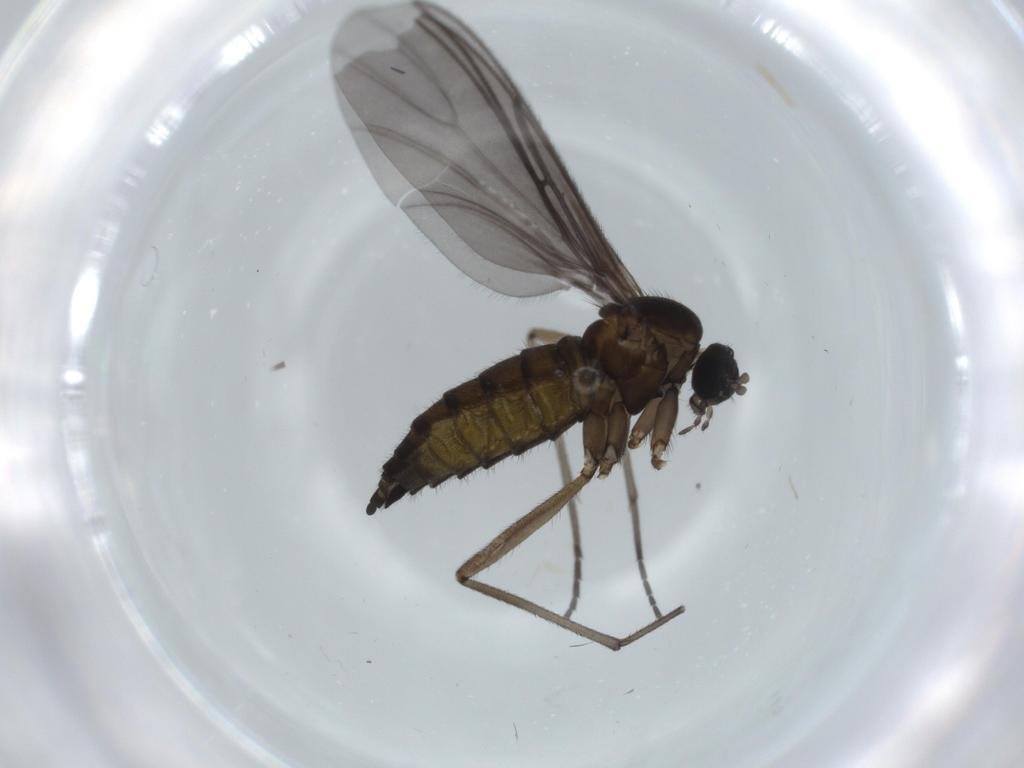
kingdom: Animalia
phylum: Arthropoda
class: Insecta
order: Diptera
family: Sciaridae
